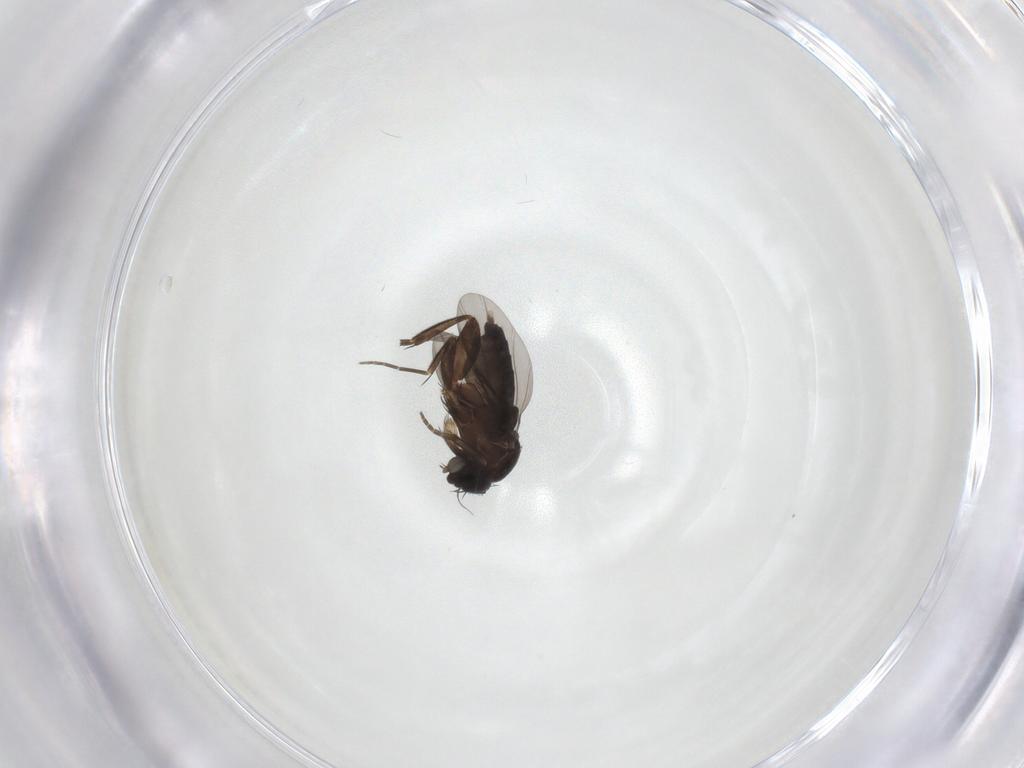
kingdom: Animalia
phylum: Arthropoda
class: Insecta
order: Diptera
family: Phoridae
